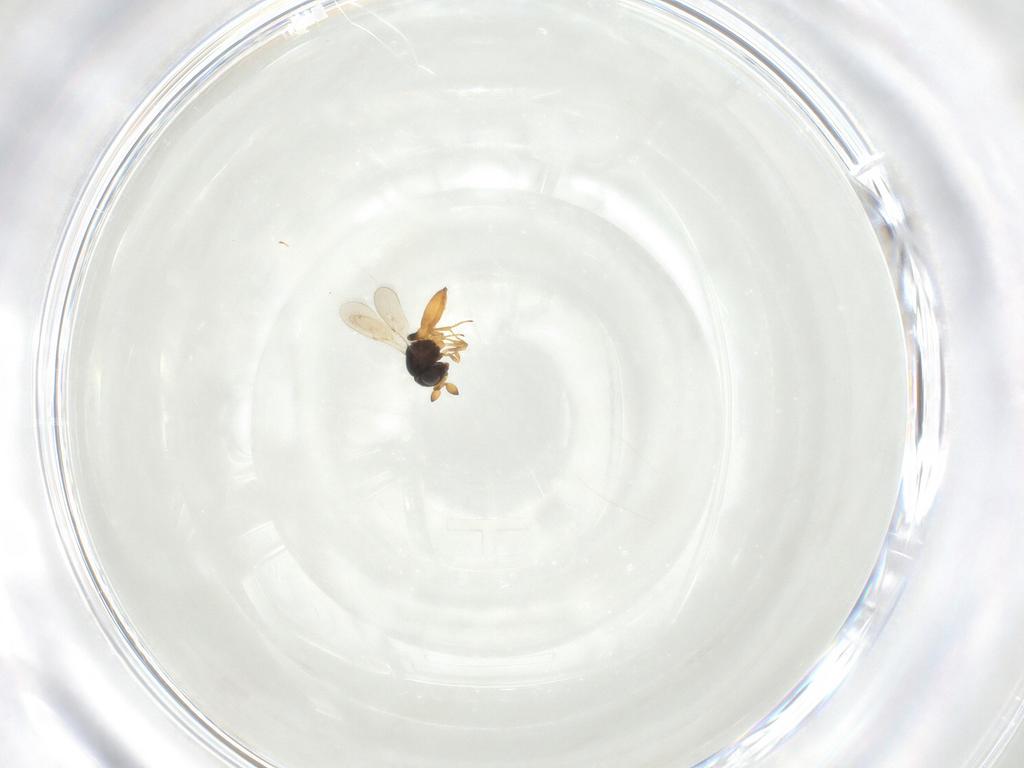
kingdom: Animalia
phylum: Arthropoda
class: Insecta
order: Hymenoptera
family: Scelionidae
